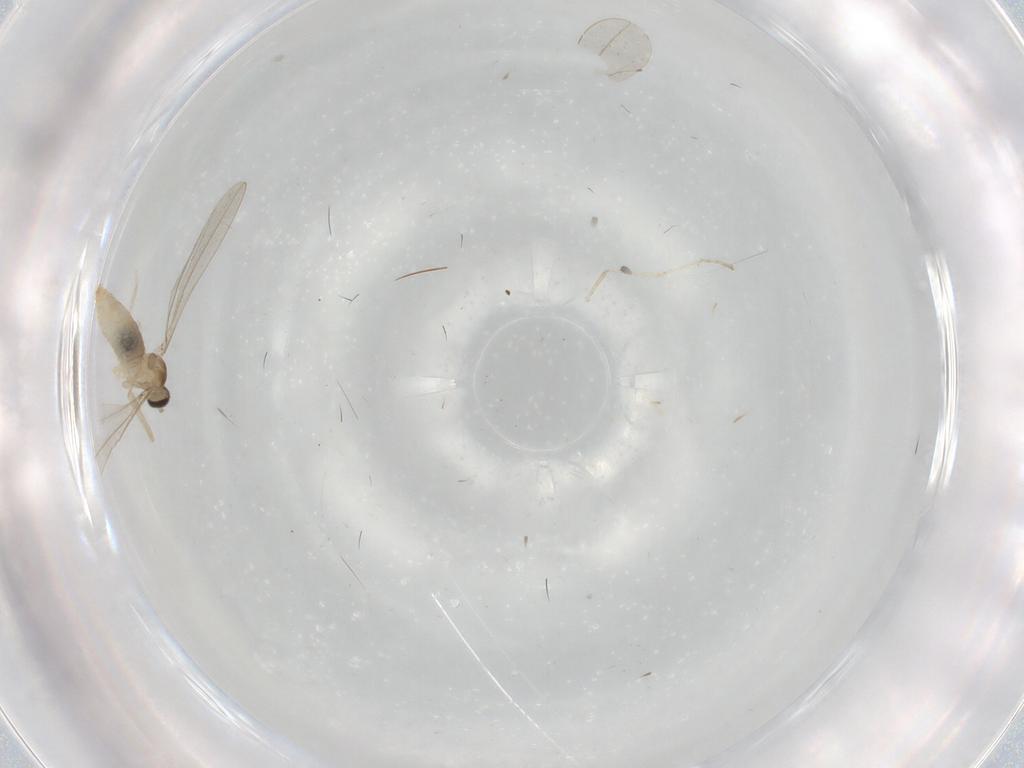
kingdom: Animalia
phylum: Arthropoda
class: Insecta
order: Diptera
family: Cecidomyiidae
